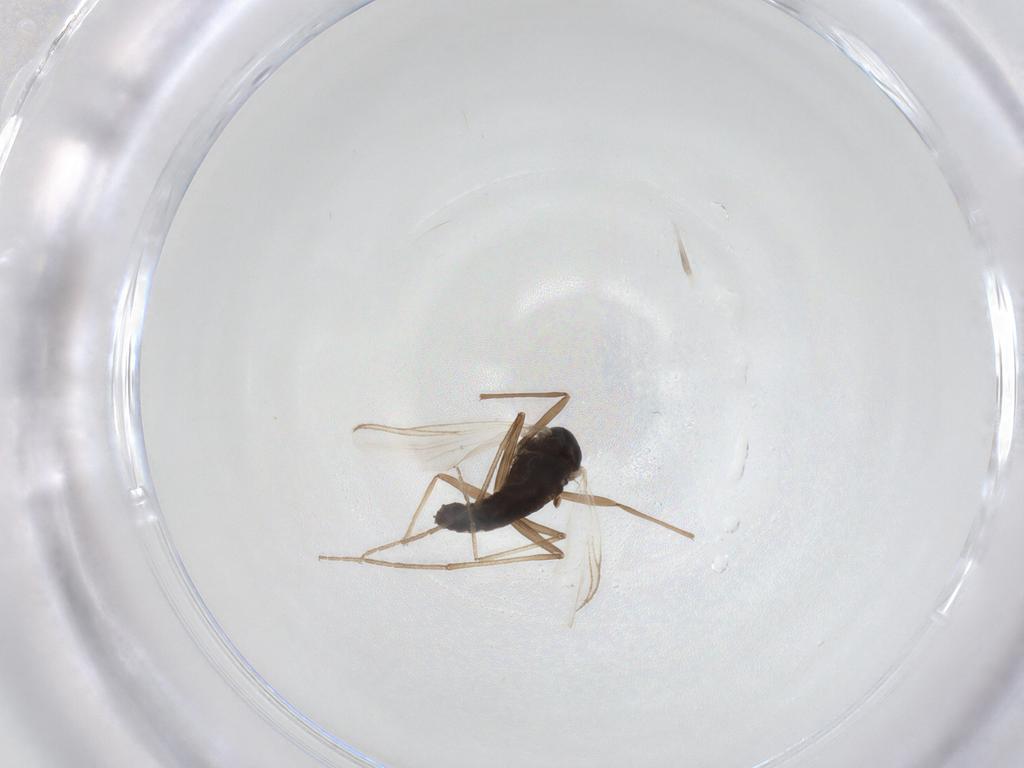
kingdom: Animalia
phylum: Arthropoda
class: Insecta
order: Diptera
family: Chironomidae
